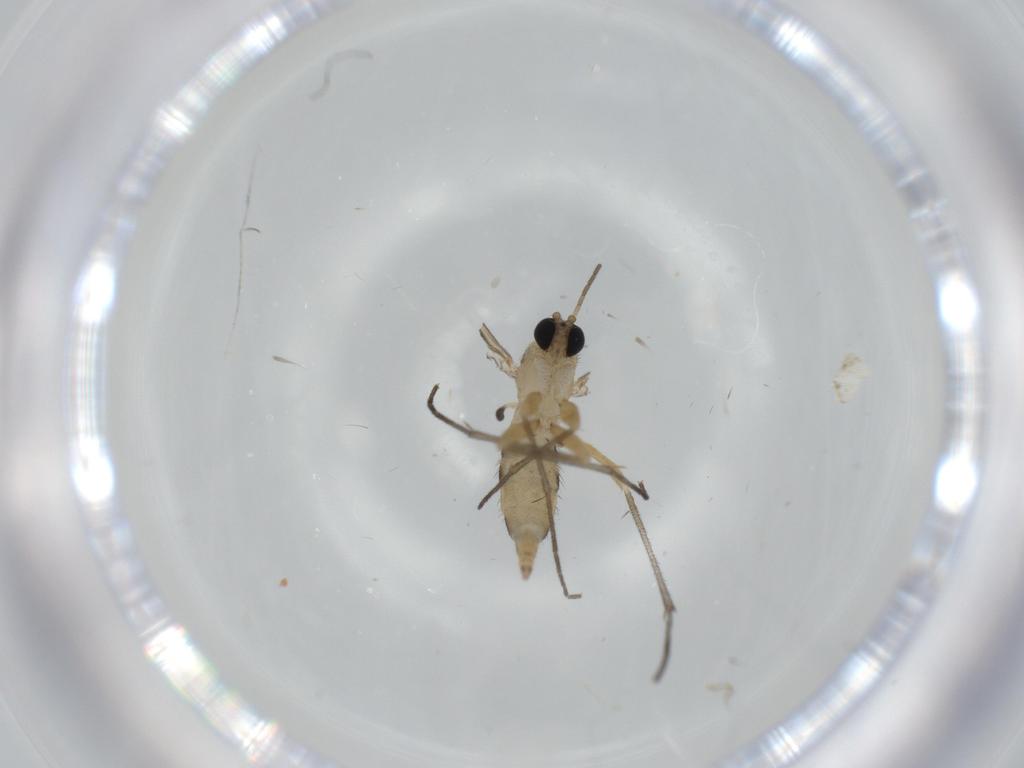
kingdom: Animalia
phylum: Arthropoda
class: Insecta
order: Diptera
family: Sciaridae
